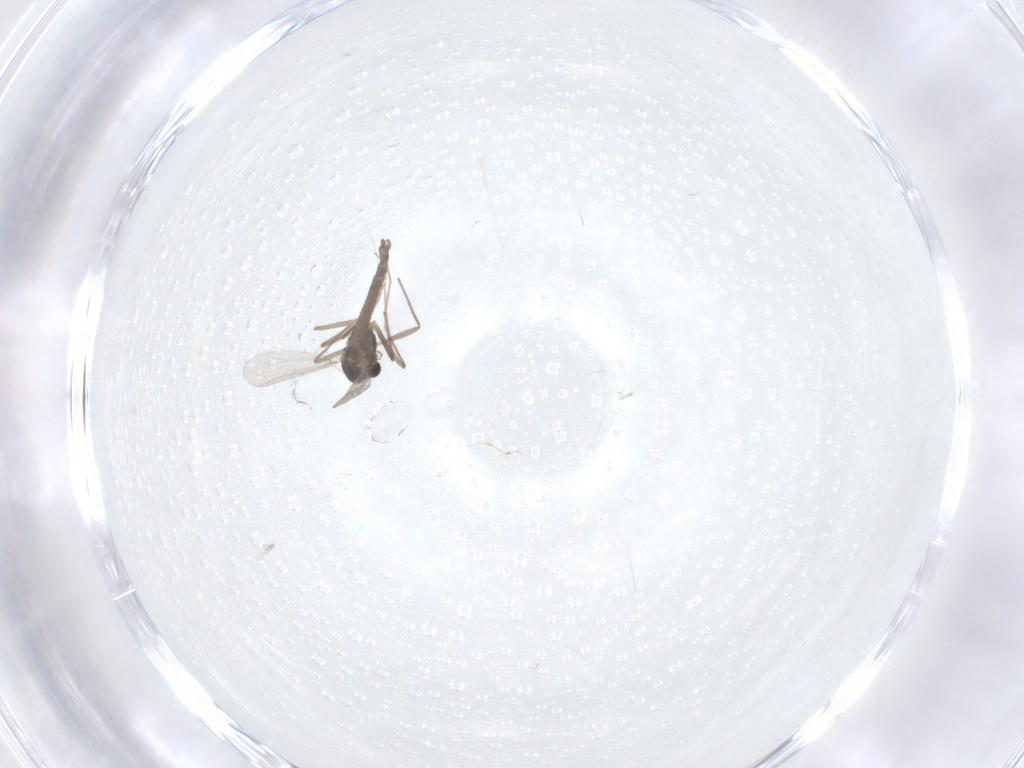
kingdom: Animalia
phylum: Arthropoda
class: Insecta
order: Diptera
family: Chironomidae
